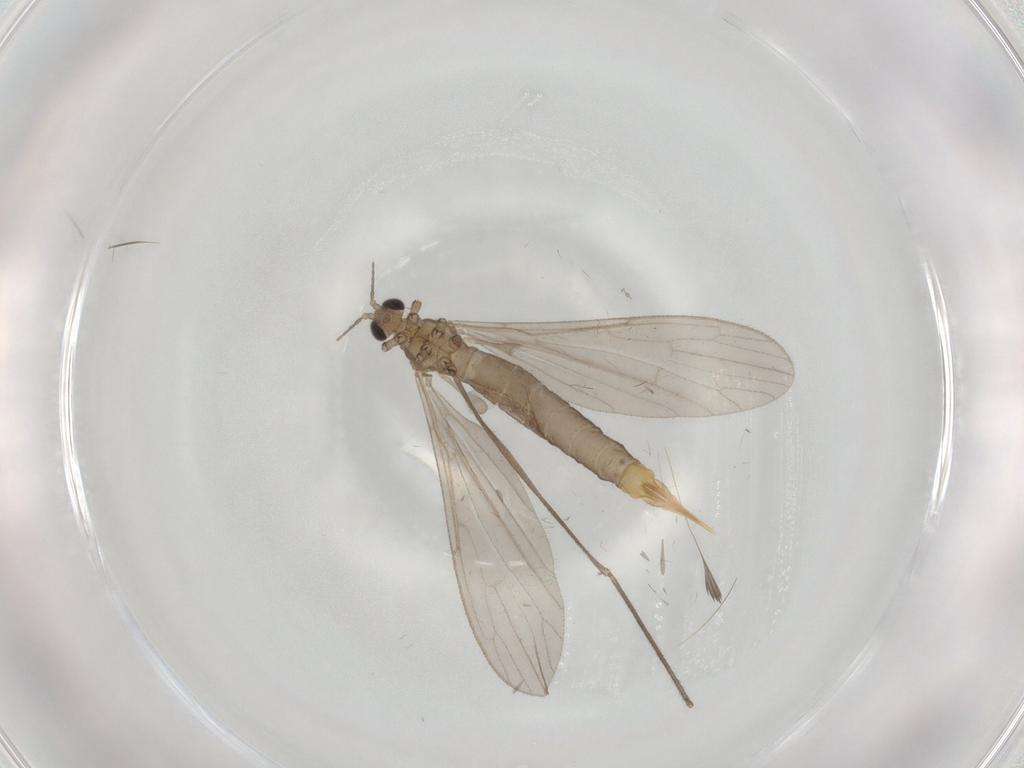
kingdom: Animalia
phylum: Arthropoda
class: Insecta
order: Diptera
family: Limoniidae
